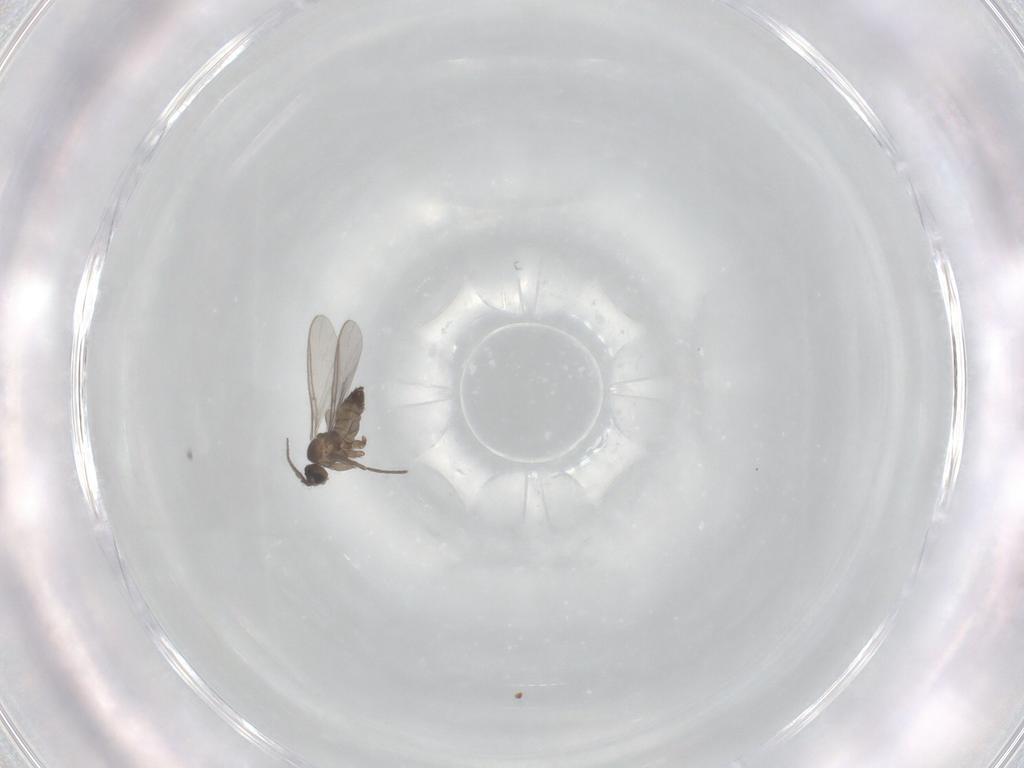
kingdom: Animalia
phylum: Arthropoda
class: Insecta
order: Diptera
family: Sciaridae
